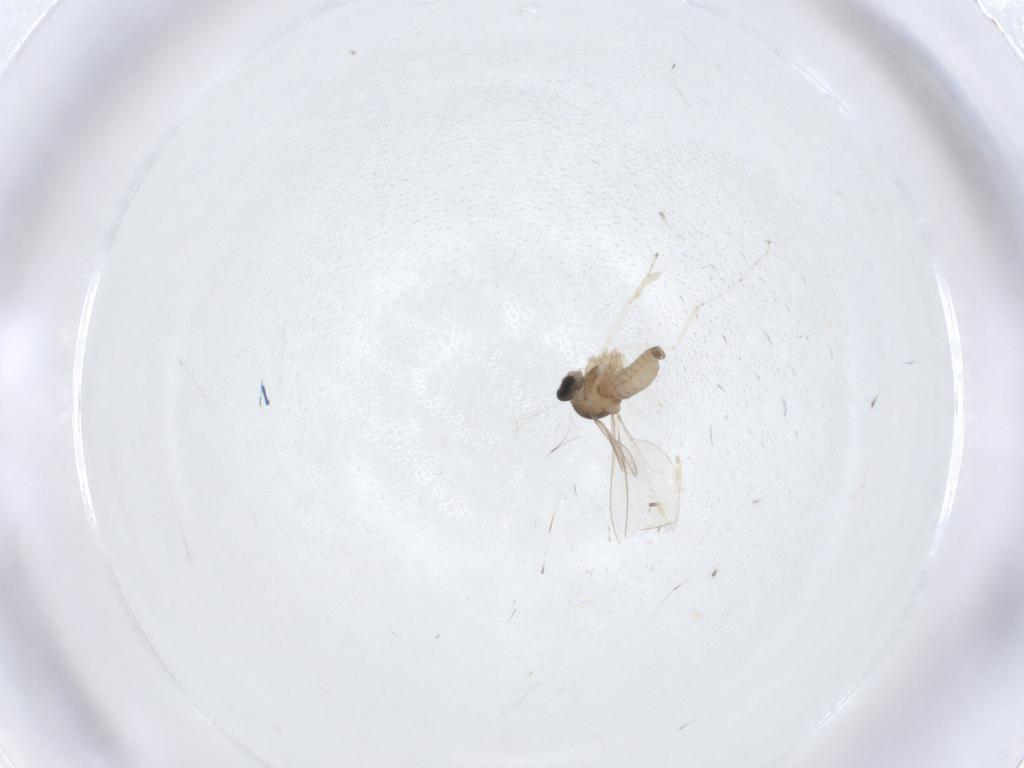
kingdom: Animalia
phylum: Arthropoda
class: Insecta
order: Diptera
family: Cecidomyiidae
